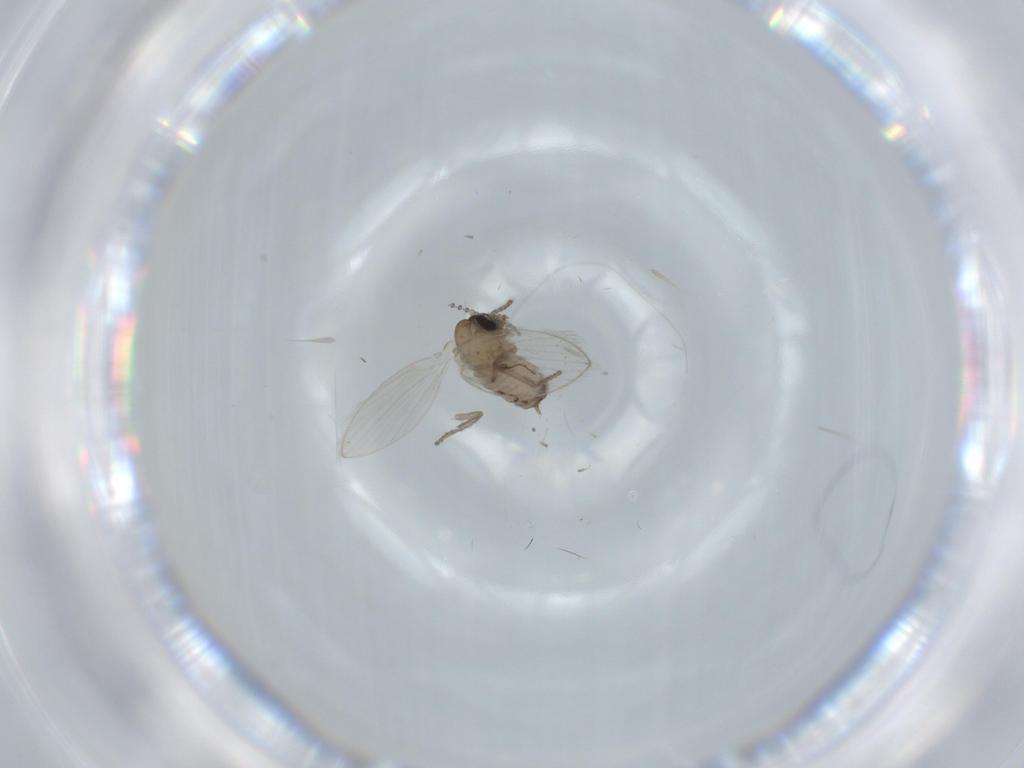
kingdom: Animalia
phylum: Arthropoda
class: Insecta
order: Diptera
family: Psychodidae
